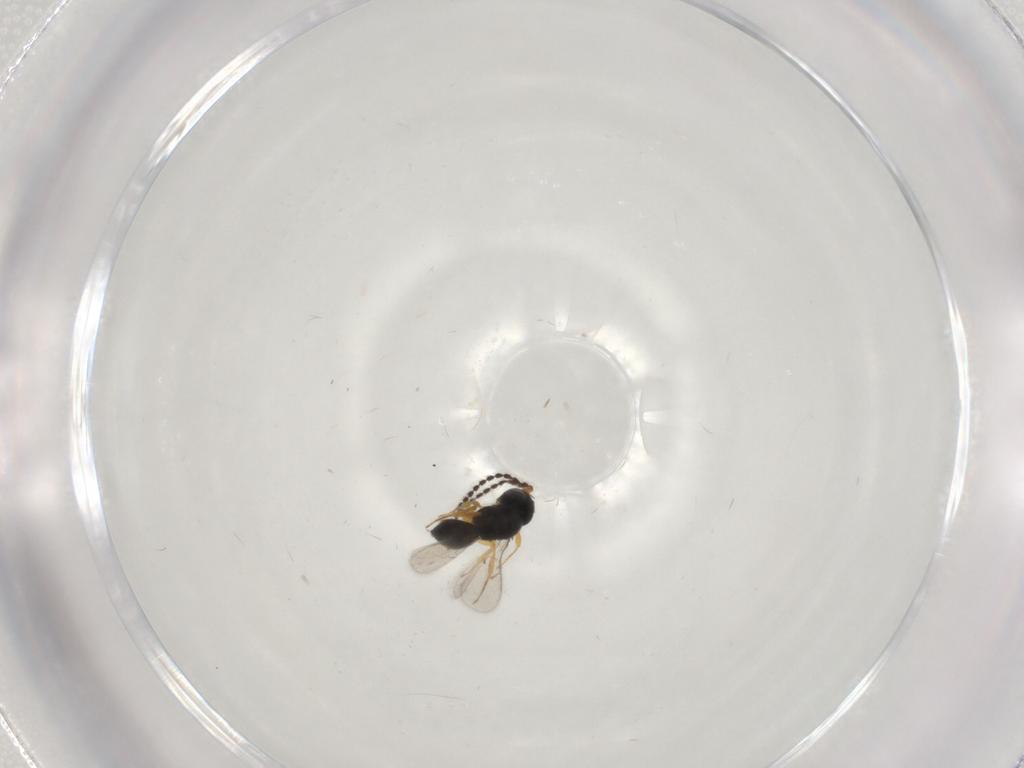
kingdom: Animalia
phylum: Arthropoda
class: Insecta
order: Hymenoptera
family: Scelionidae
